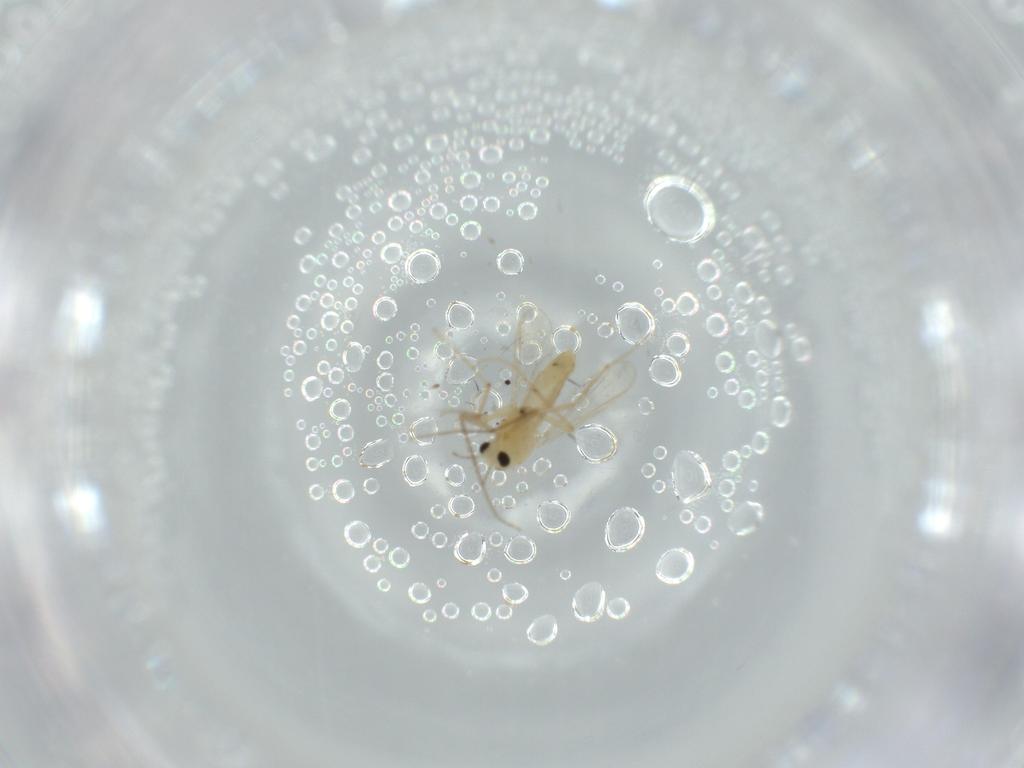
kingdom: Animalia
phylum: Arthropoda
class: Insecta
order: Diptera
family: Chironomidae
